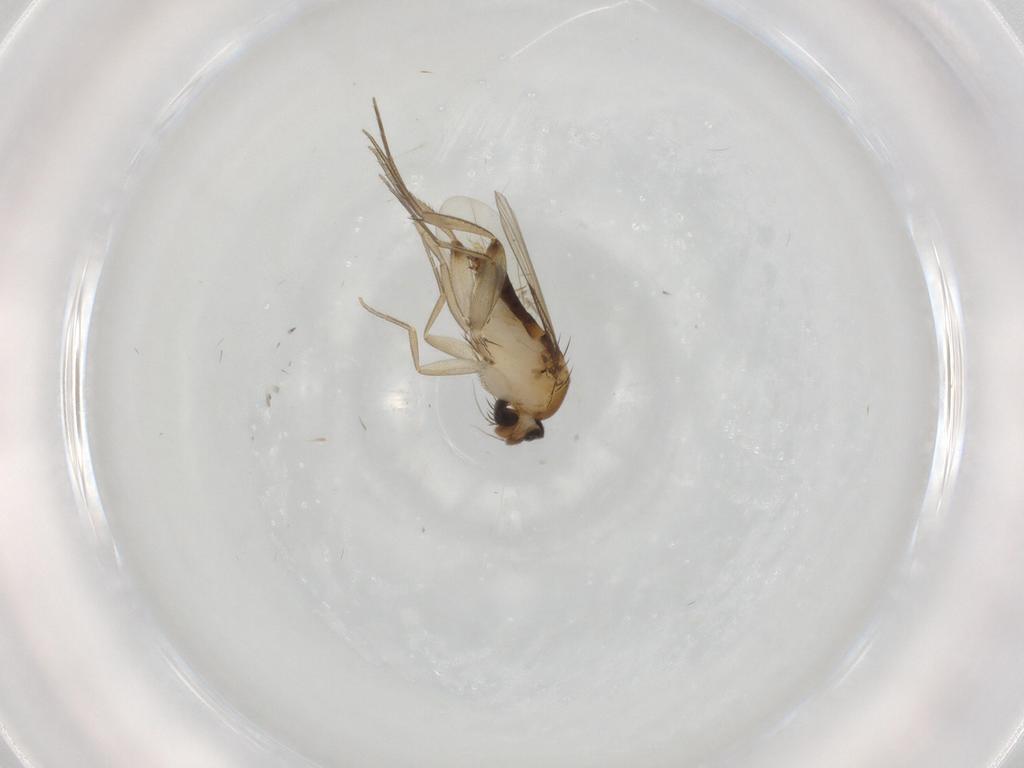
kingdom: Animalia
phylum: Arthropoda
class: Insecta
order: Diptera
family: Phoridae
